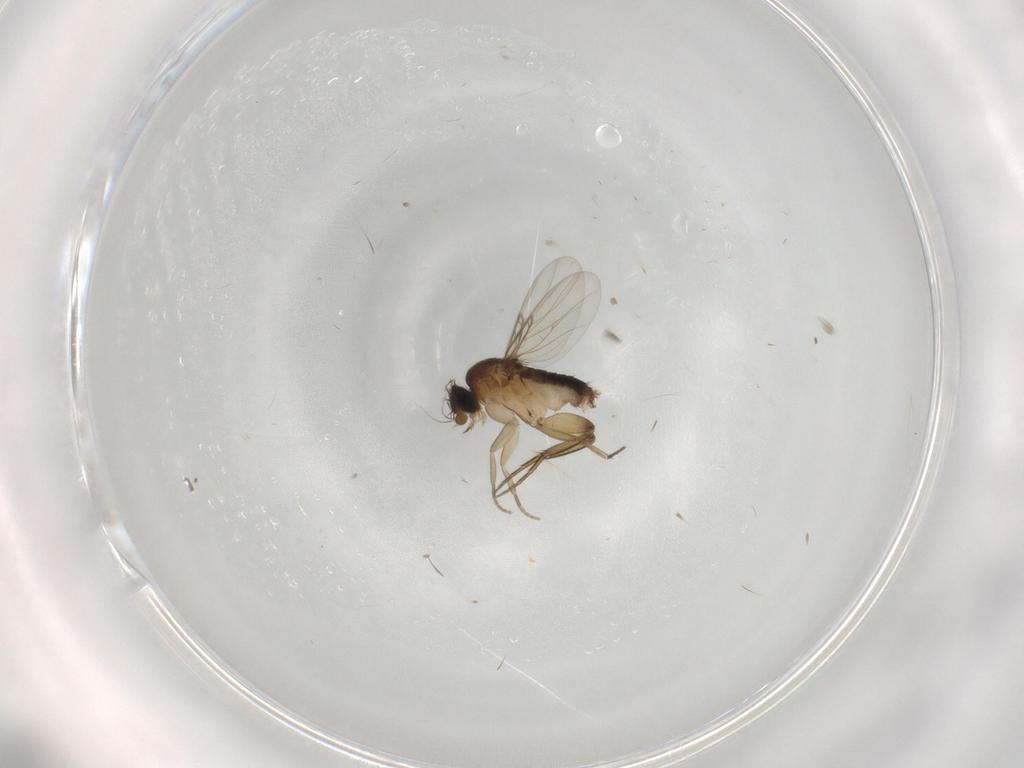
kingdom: Animalia
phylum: Arthropoda
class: Insecta
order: Diptera
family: Phoridae
